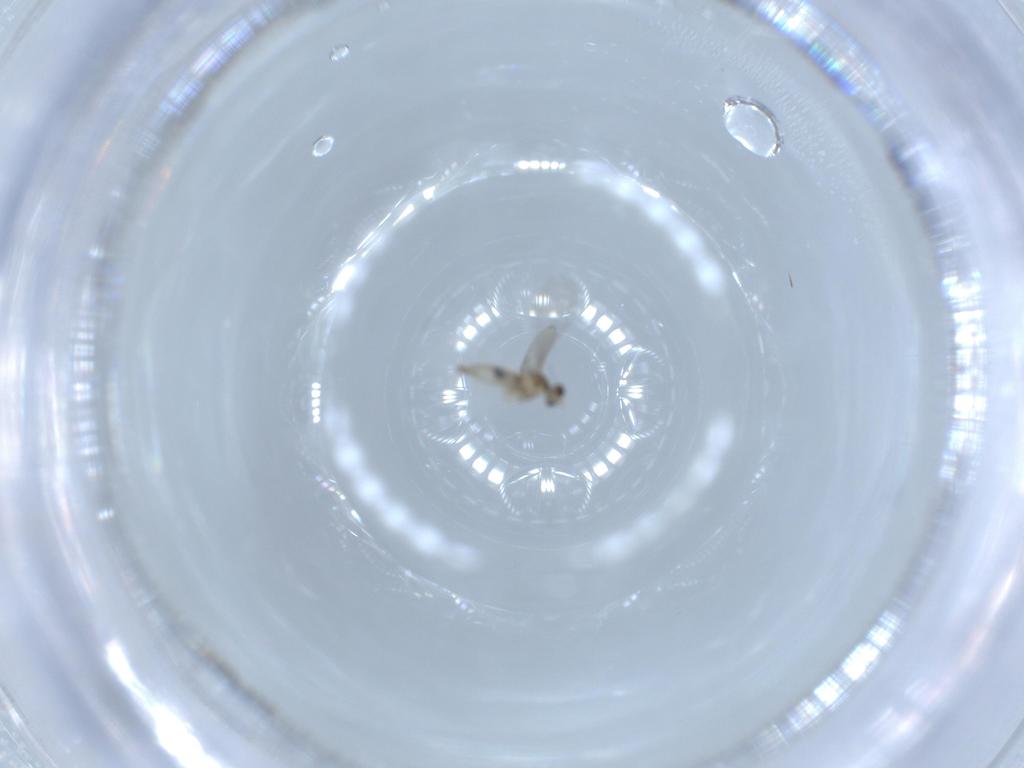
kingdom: Animalia
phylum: Arthropoda
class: Insecta
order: Diptera
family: Cecidomyiidae
